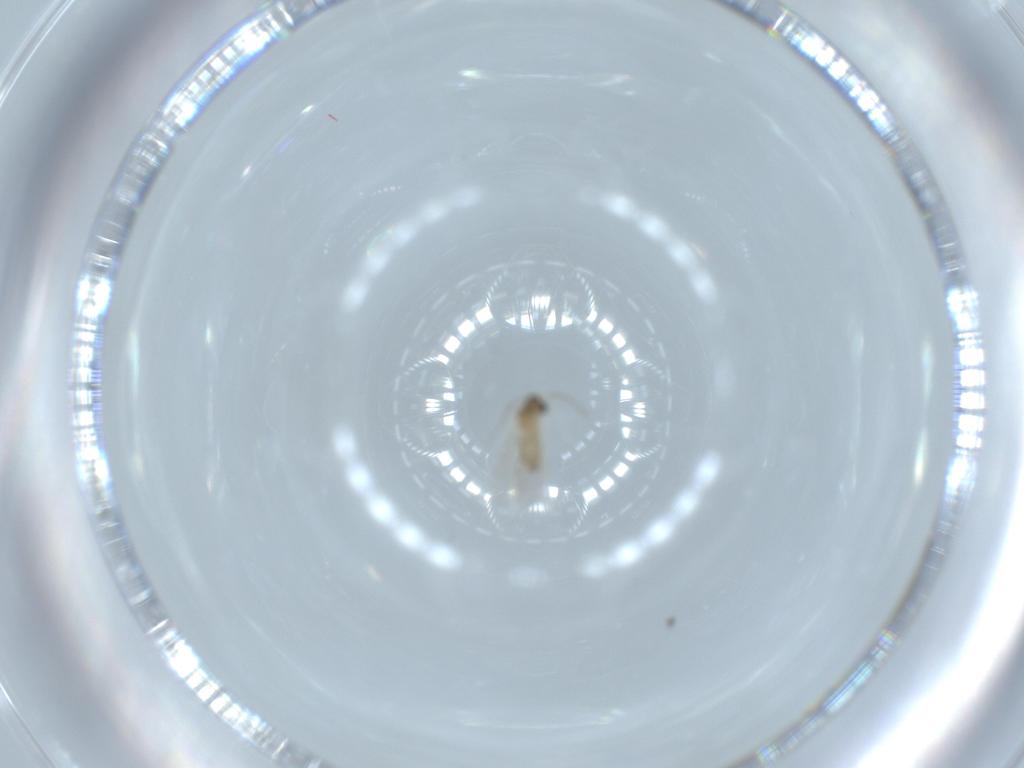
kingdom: Animalia
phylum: Arthropoda
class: Insecta
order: Diptera
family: Cecidomyiidae
